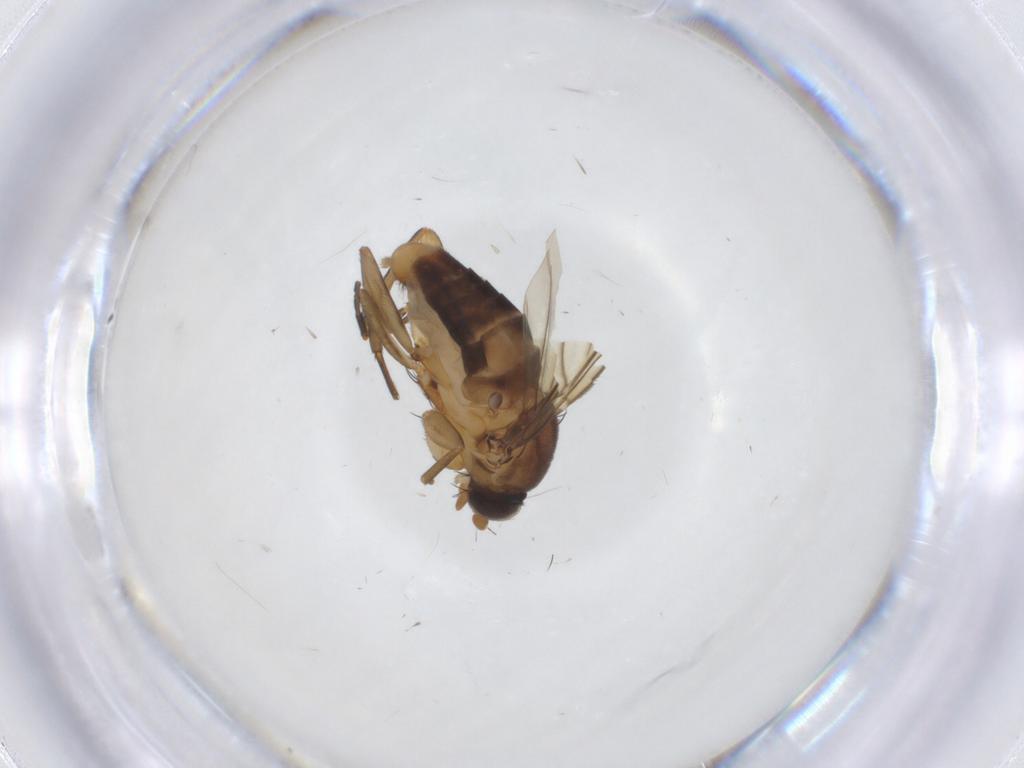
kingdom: Animalia
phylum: Arthropoda
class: Insecta
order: Diptera
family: Phoridae
